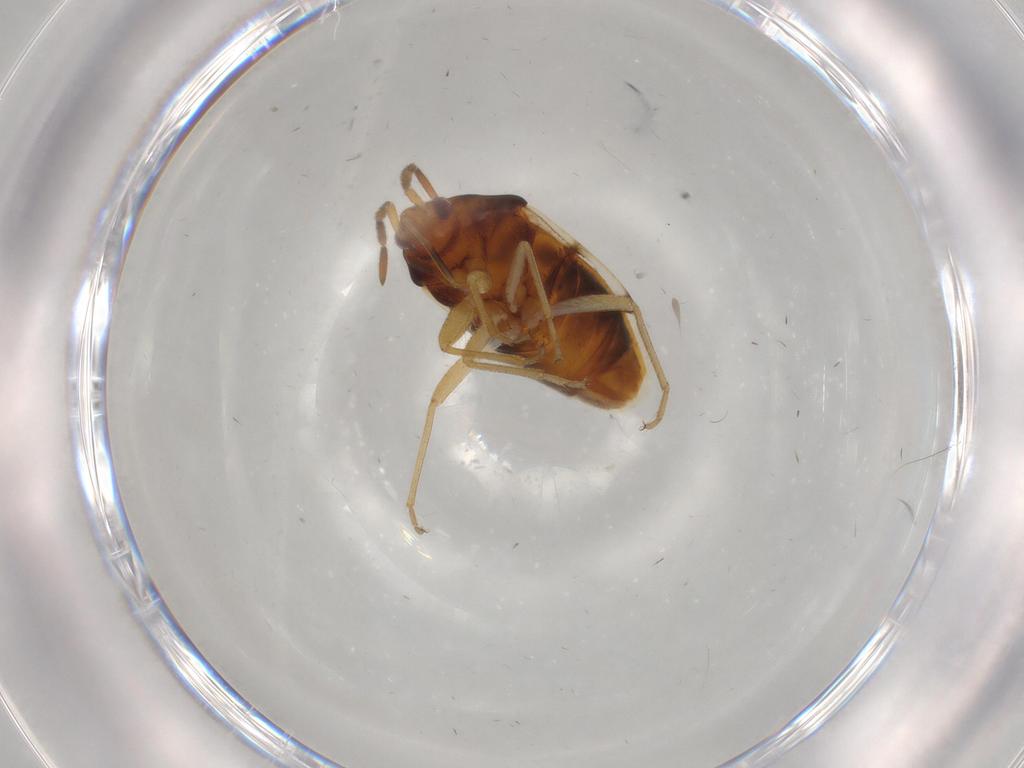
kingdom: Animalia
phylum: Arthropoda
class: Insecta
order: Hemiptera
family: Rhyparochromidae
